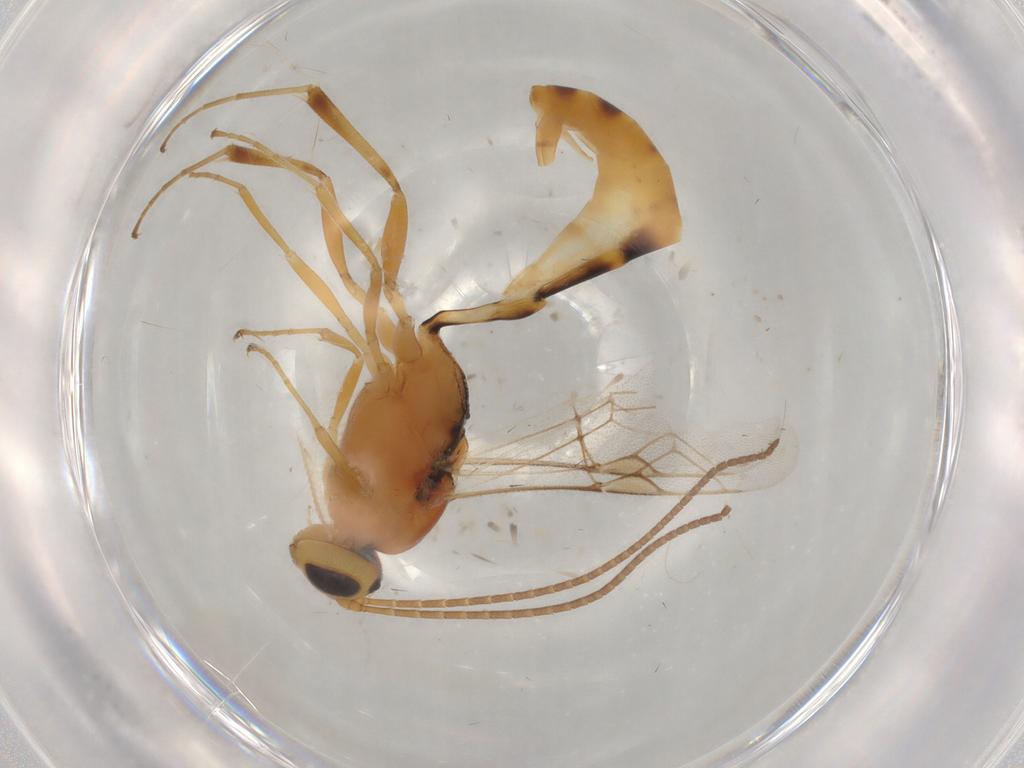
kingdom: Animalia
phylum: Arthropoda
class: Insecta
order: Hymenoptera
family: Ichneumonidae
